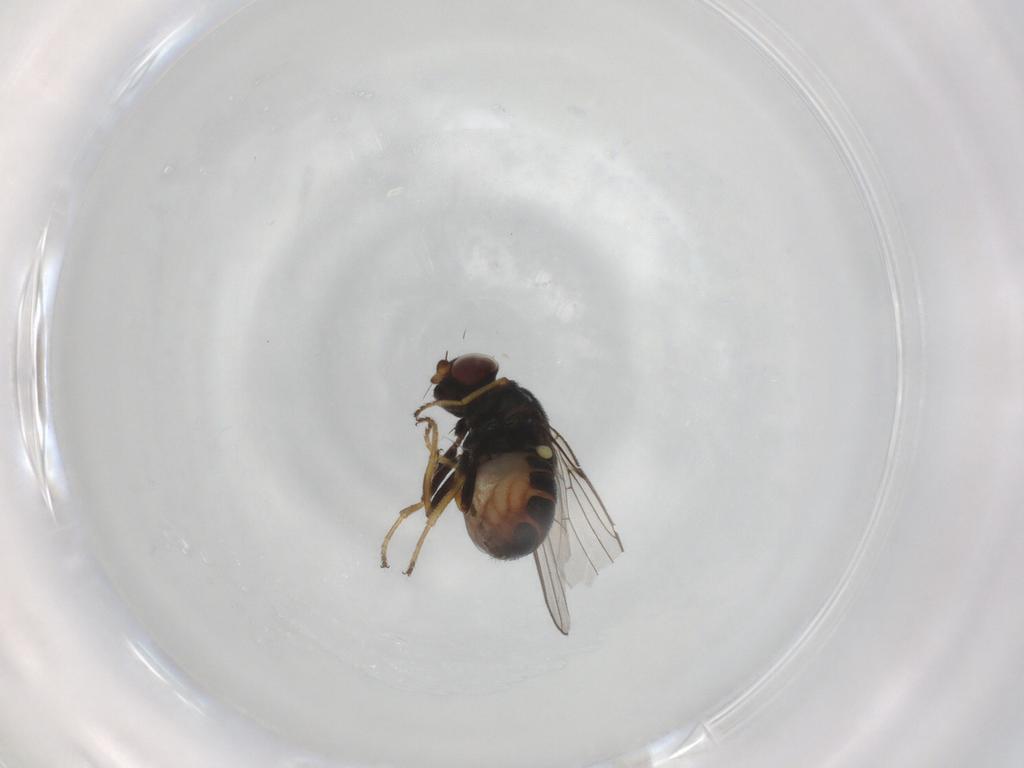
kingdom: Animalia
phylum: Arthropoda
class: Insecta
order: Diptera
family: Chloropidae
